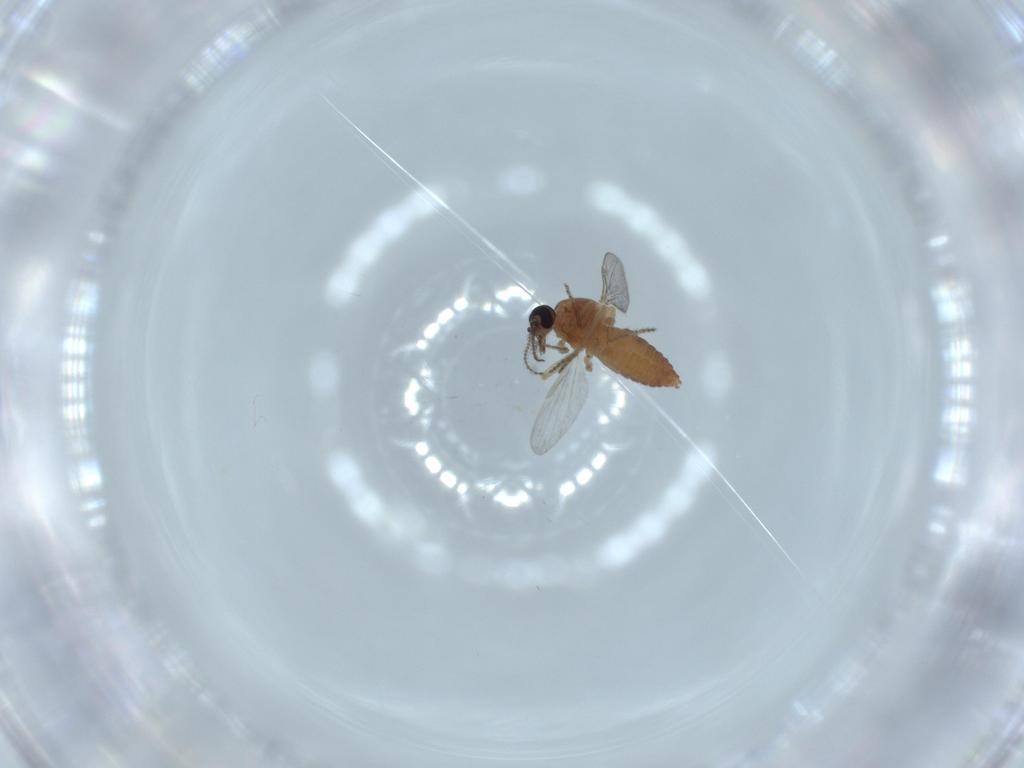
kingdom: Animalia
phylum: Arthropoda
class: Insecta
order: Diptera
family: Ceratopogonidae
